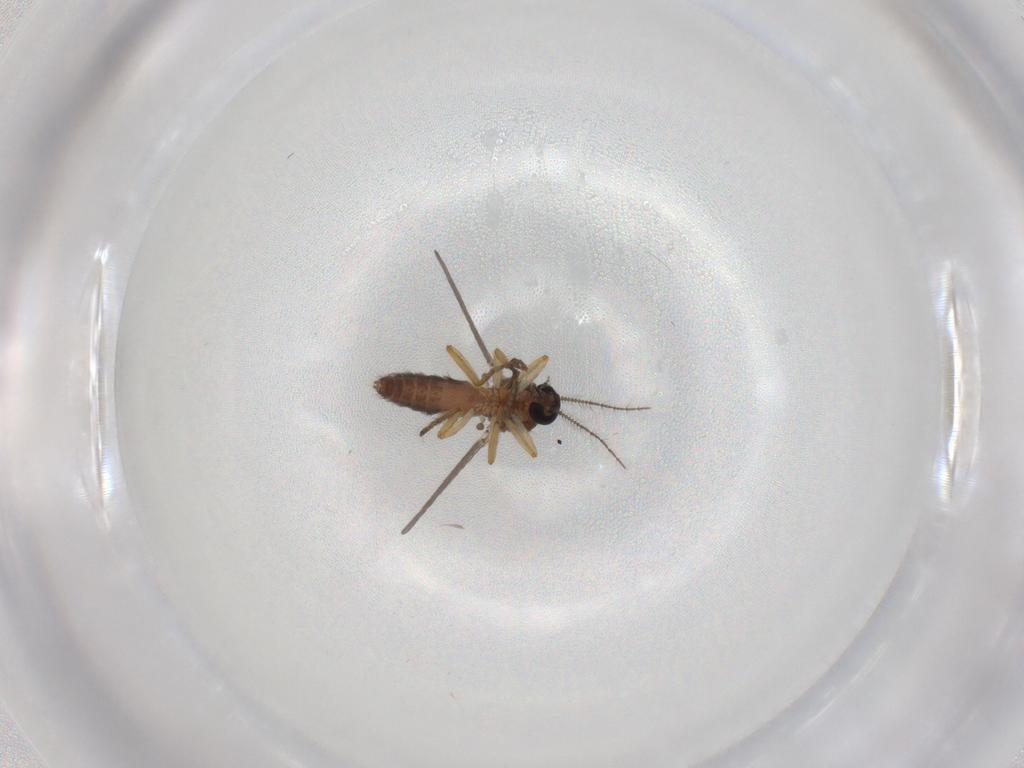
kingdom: Animalia
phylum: Arthropoda
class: Insecta
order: Diptera
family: Ceratopogonidae
